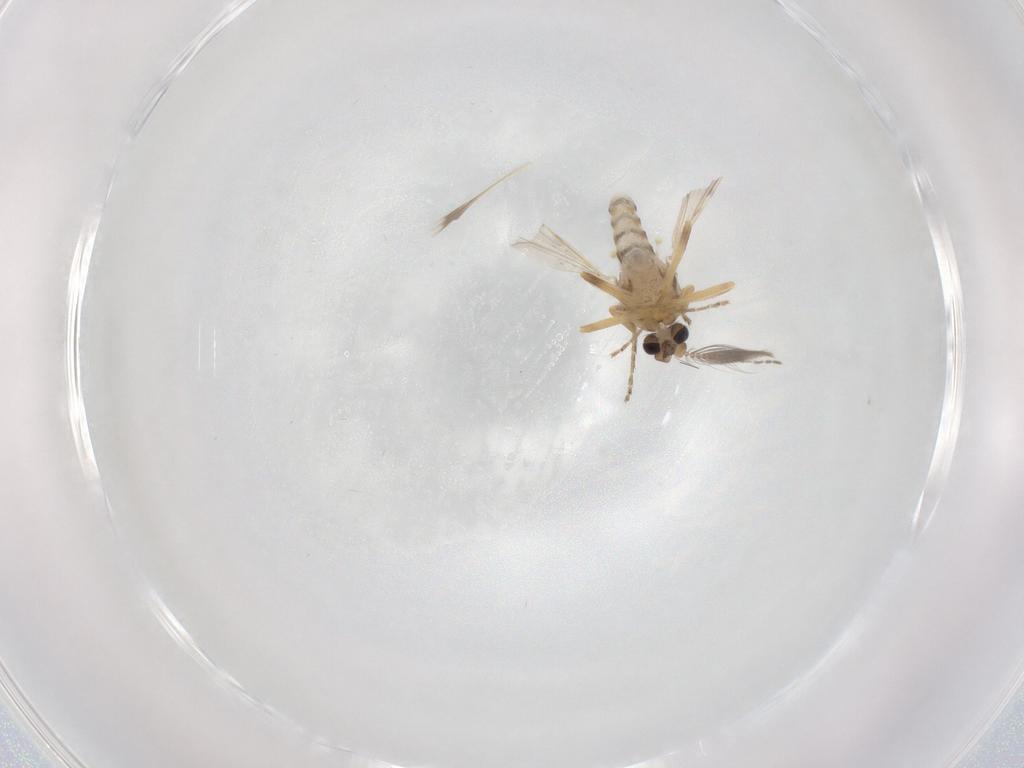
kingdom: Animalia
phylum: Arthropoda
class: Insecta
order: Diptera
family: Ceratopogonidae
